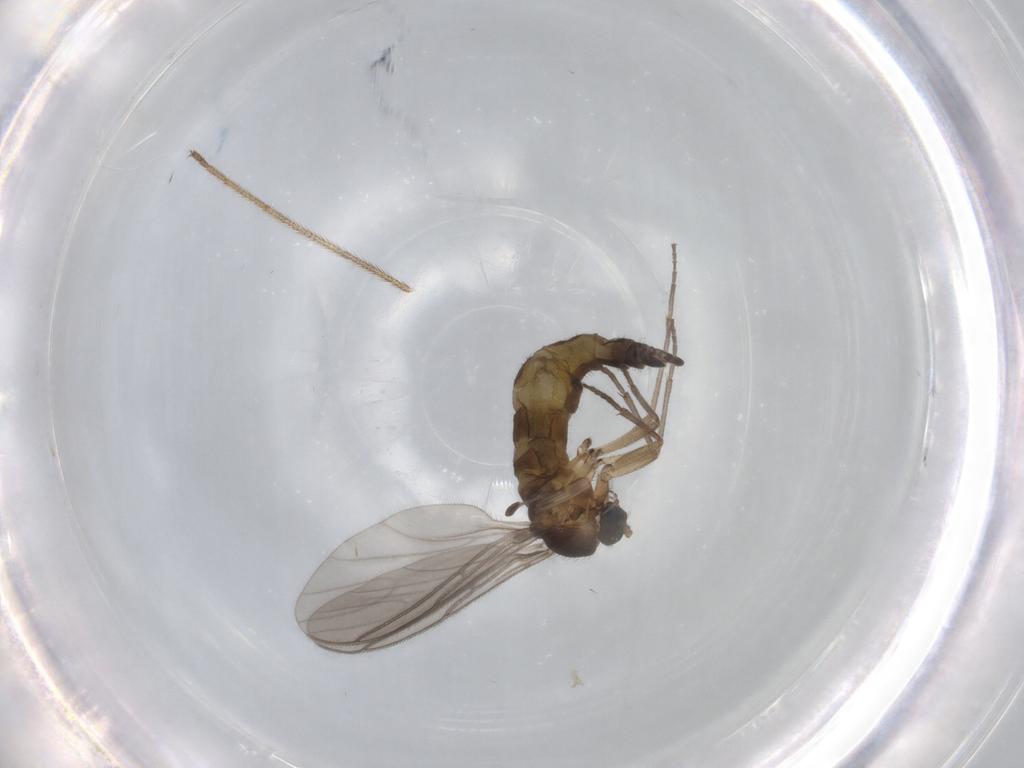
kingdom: Animalia
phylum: Arthropoda
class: Insecta
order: Diptera
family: Limoniidae
